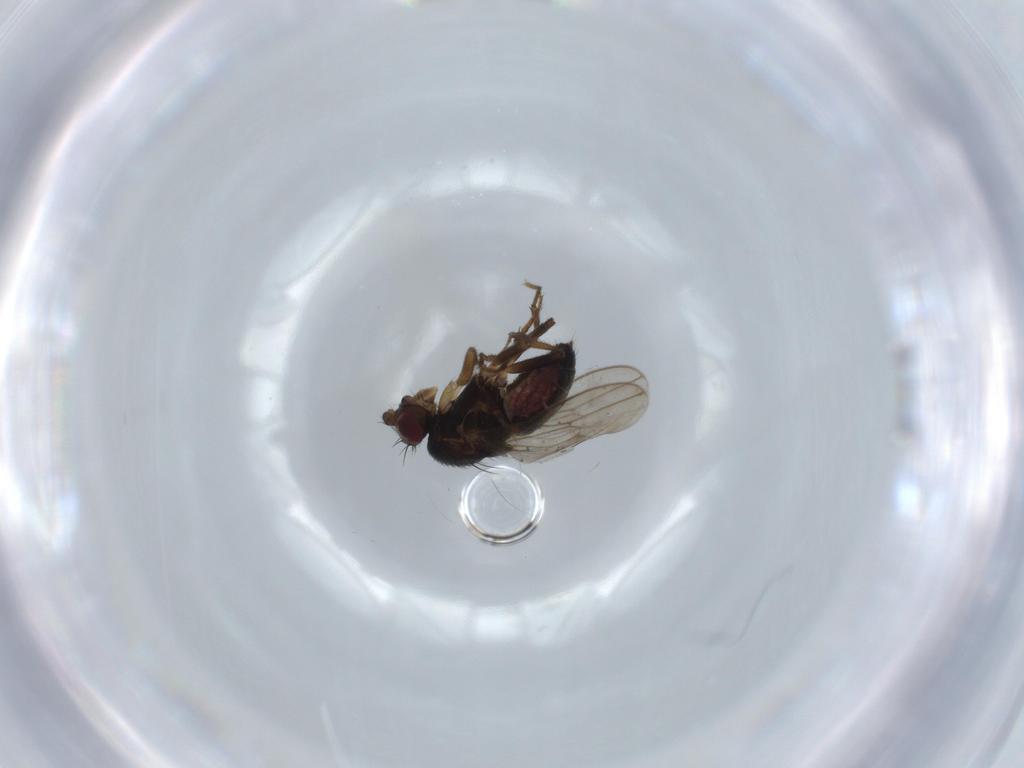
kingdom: Animalia
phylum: Arthropoda
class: Insecta
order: Diptera
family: Sphaeroceridae
